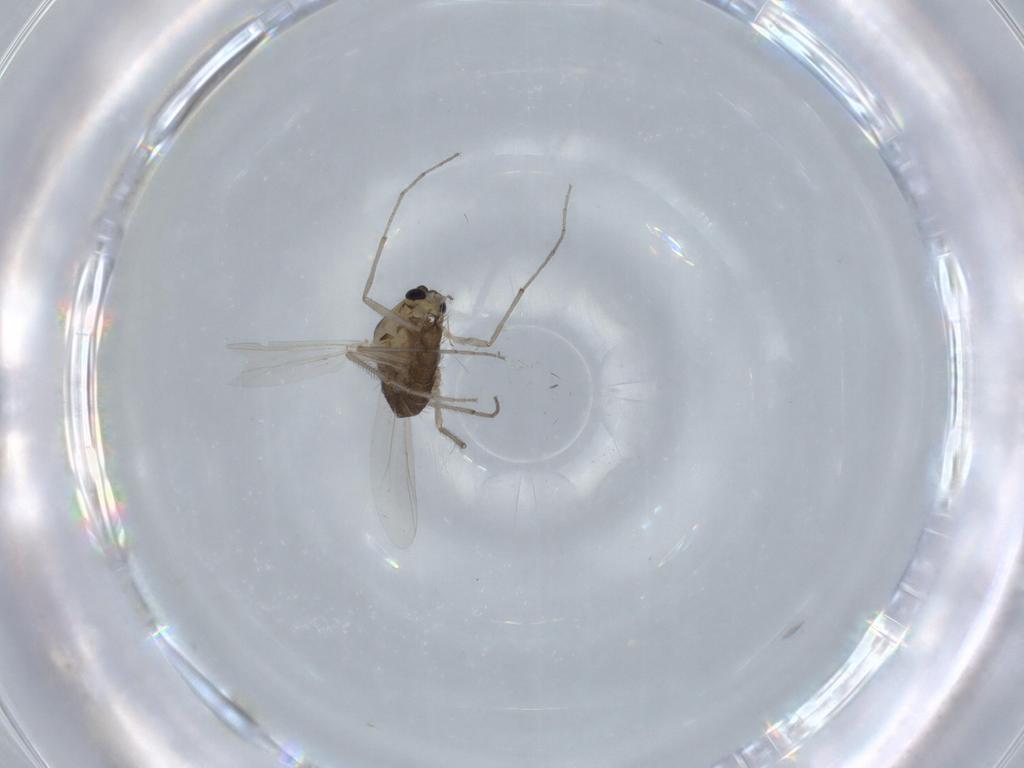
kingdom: Animalia
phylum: Arthropoda
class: Insecta
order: Diptera
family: Chironomidae
